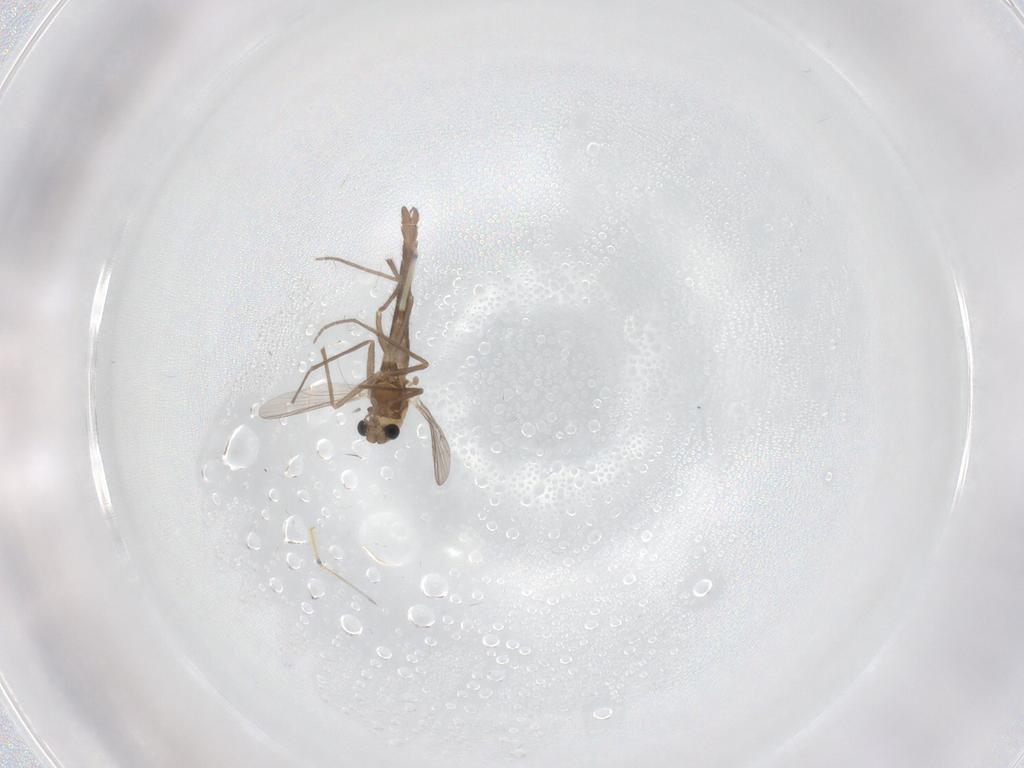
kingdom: Animalia
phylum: Arthropoda
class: Insecta
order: Diptera
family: Chironomidae
